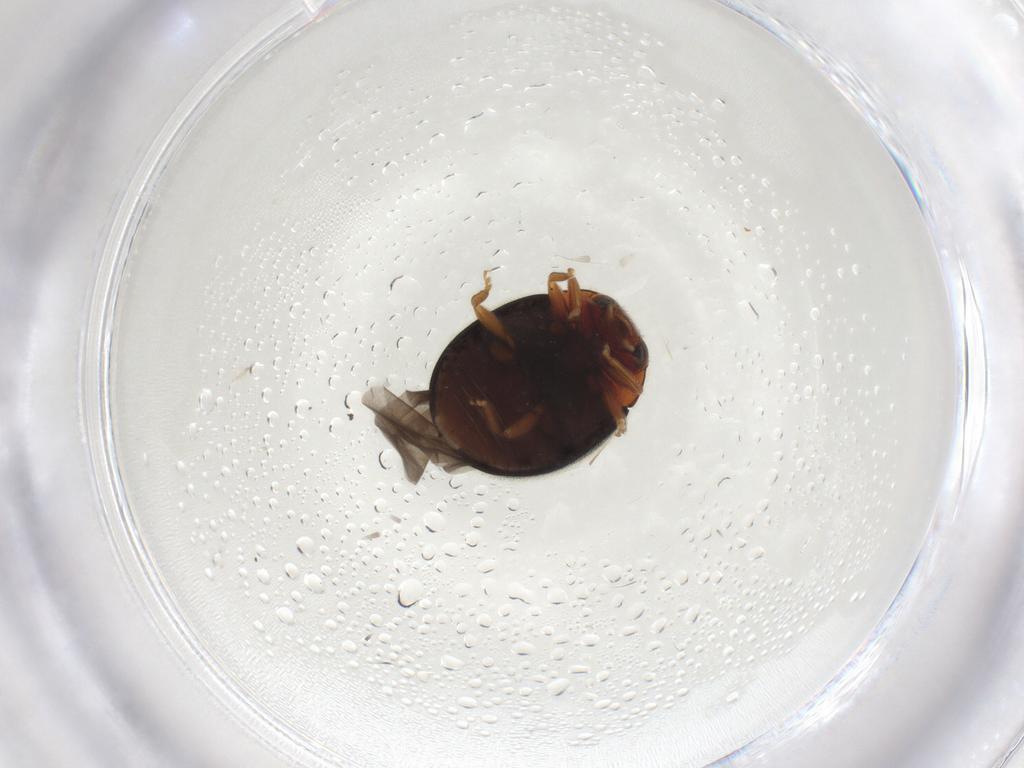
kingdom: Animalia
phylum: Arthropoda
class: Insecta
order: Coleoptera
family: Coccinellidae
